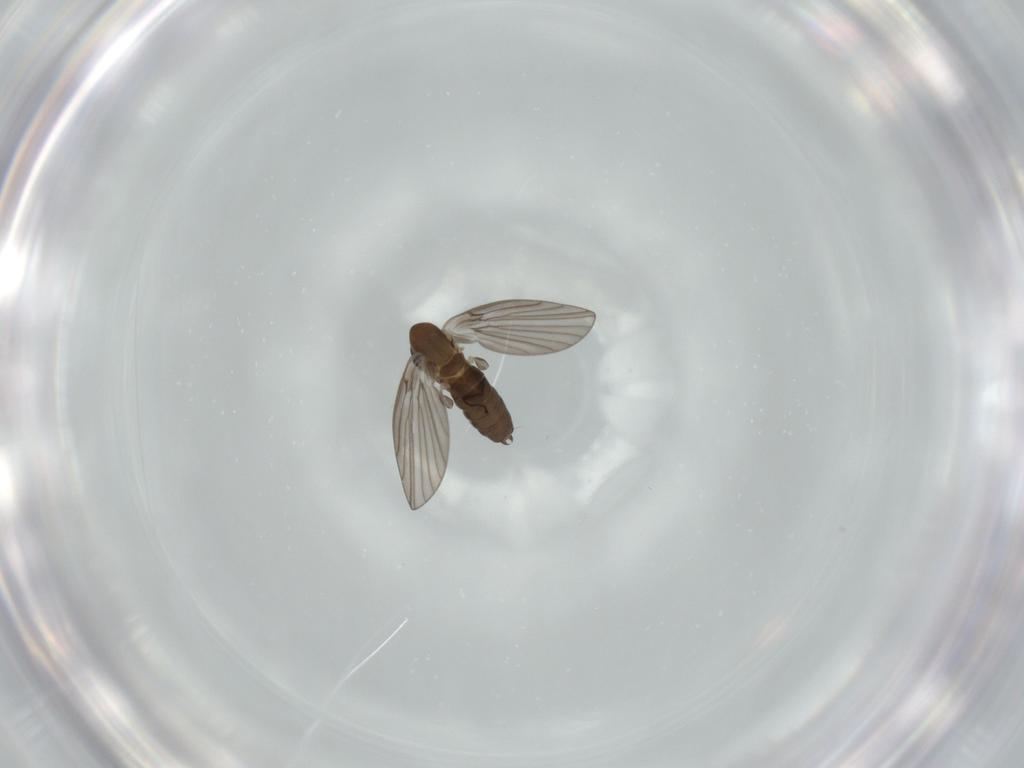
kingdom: Animalia
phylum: Arthropoda
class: Insecta
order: Diptera
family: Psychodidae
